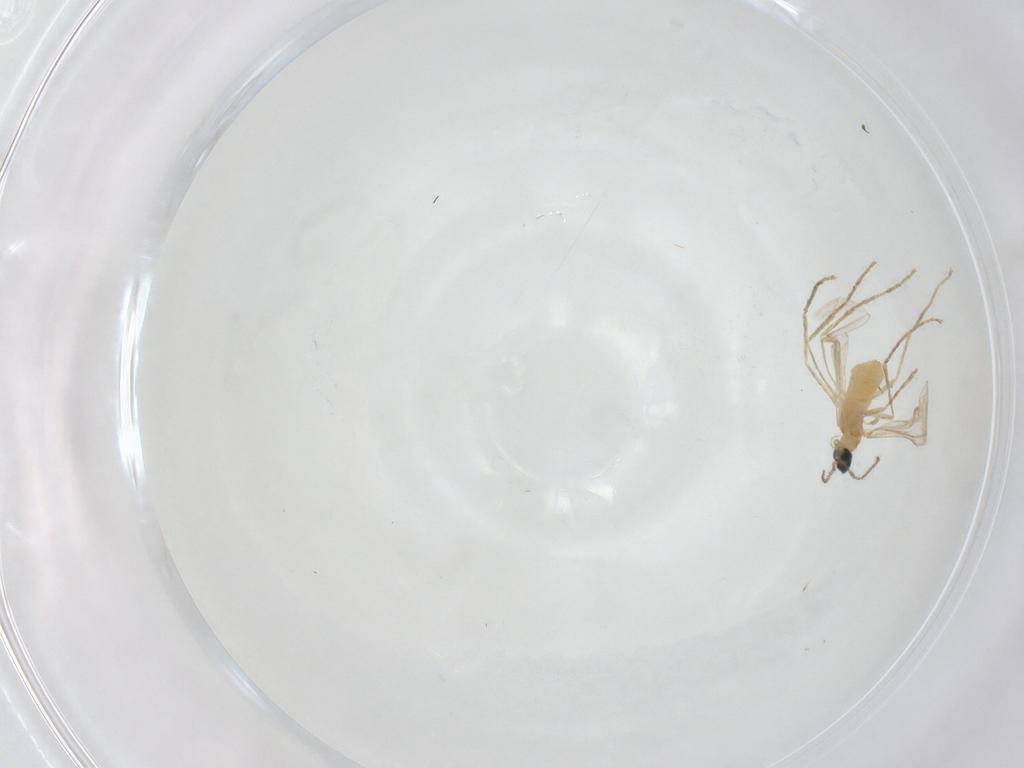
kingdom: Animalia
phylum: Arthropoda
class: Insecta
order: Diptera
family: Cecidomyiidae
